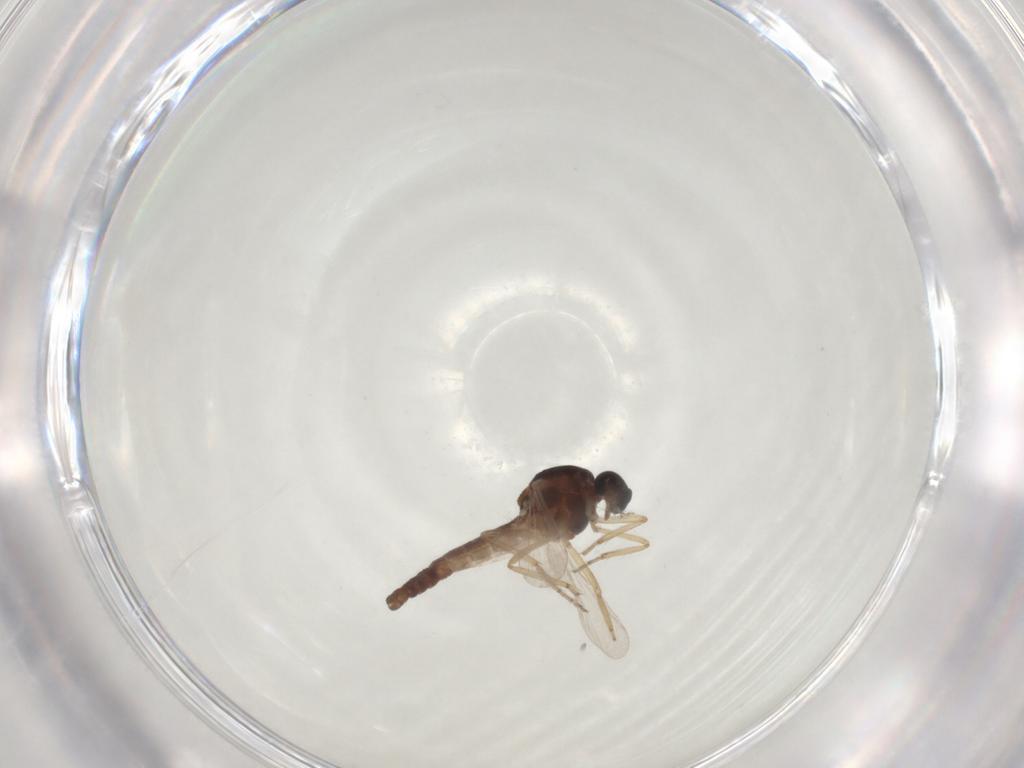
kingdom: Animalia
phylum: Arthropoda
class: Insecta
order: Diptera
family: Ceratopogonidae
